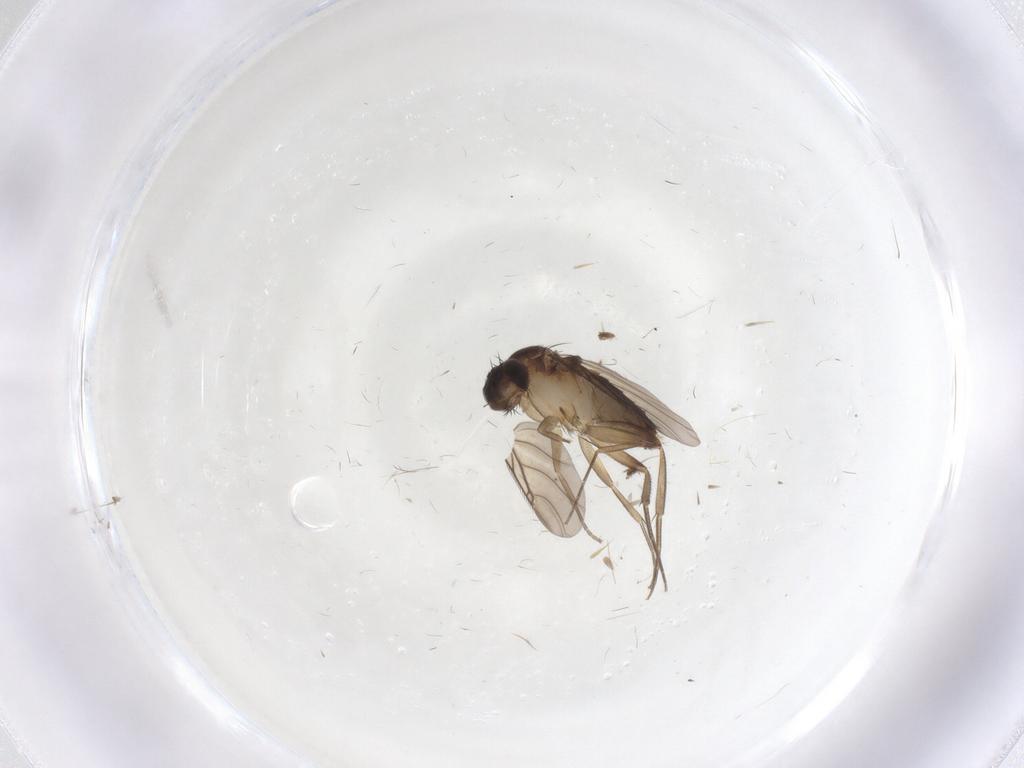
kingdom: Animalia
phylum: Arthropoda
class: Insecta
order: Diptera
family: Phoridae
